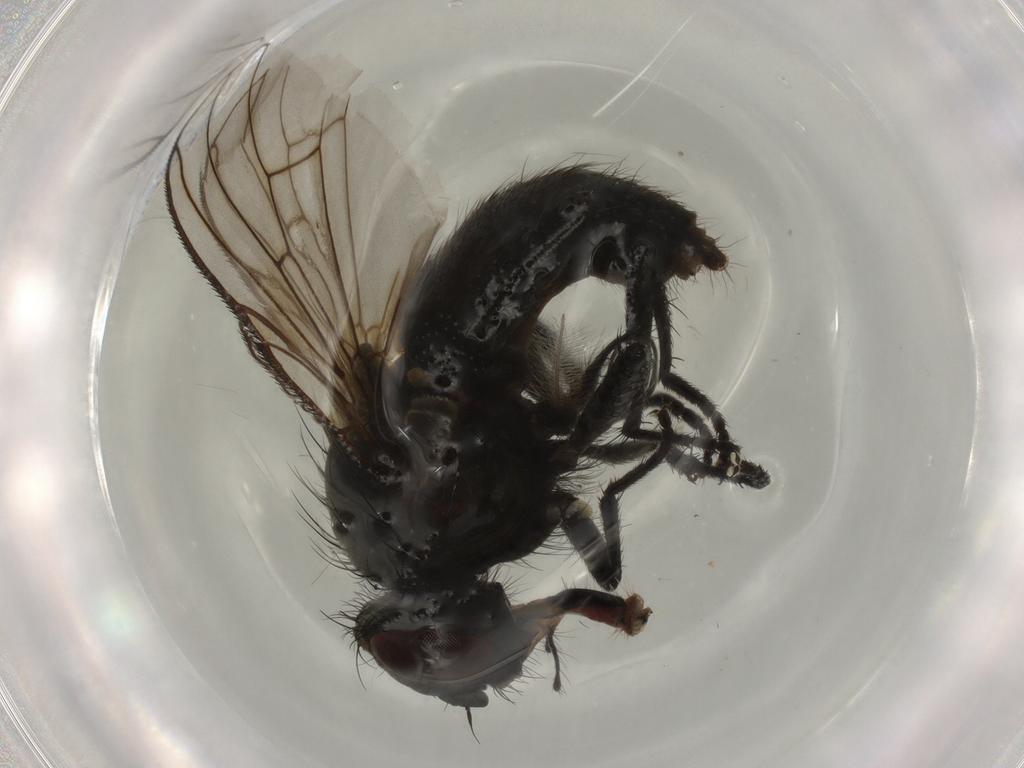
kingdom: Animalia
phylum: Arthropoda
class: Insecta
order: Diptera
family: Muscidae
